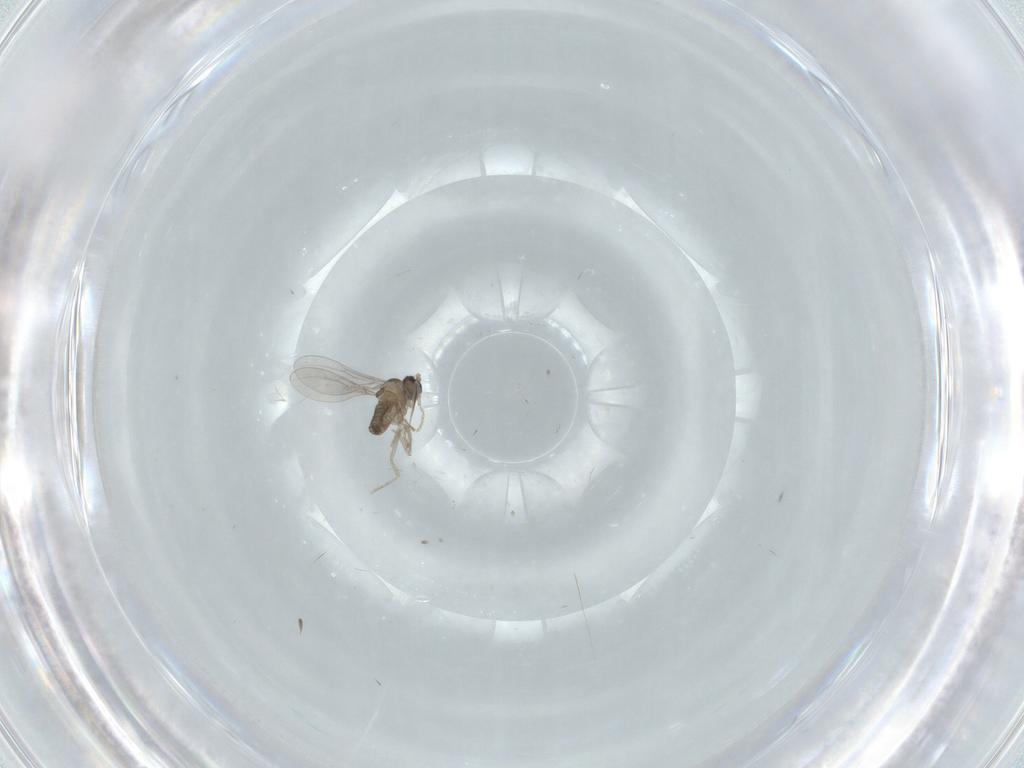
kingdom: Animalia
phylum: Arthropoda
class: Insecta
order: Diptera
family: Cecidomyiidae
